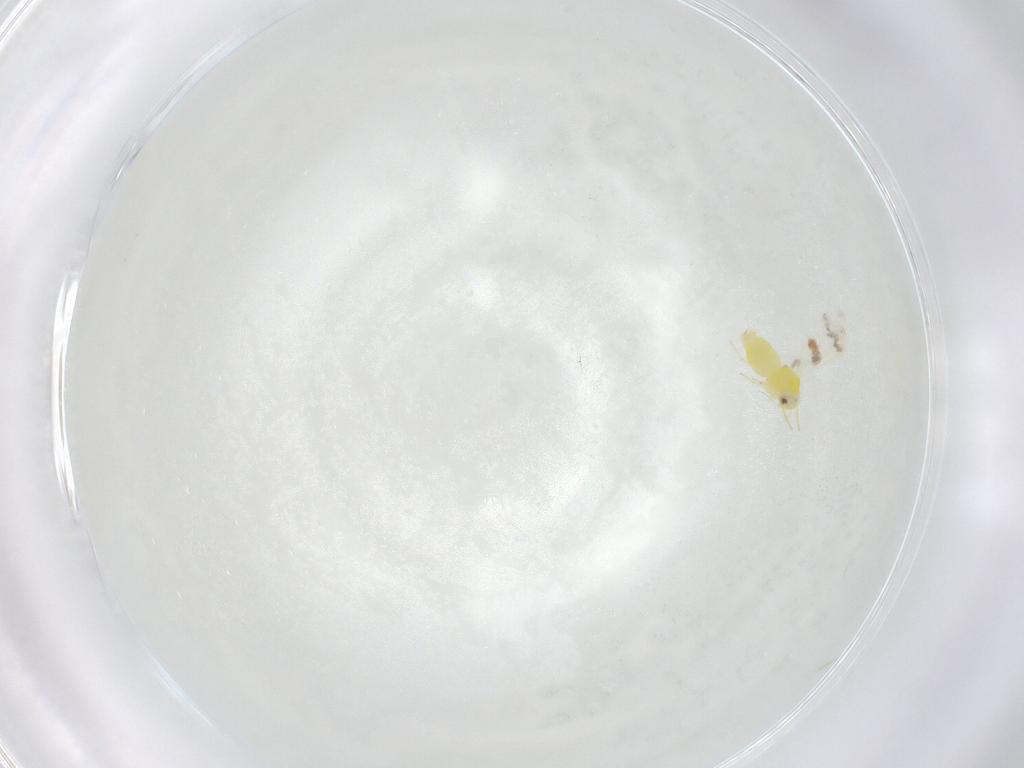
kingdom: Animalia
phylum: Arthropoda
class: Insecta
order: Hemiptera
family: Aleyrodidae
